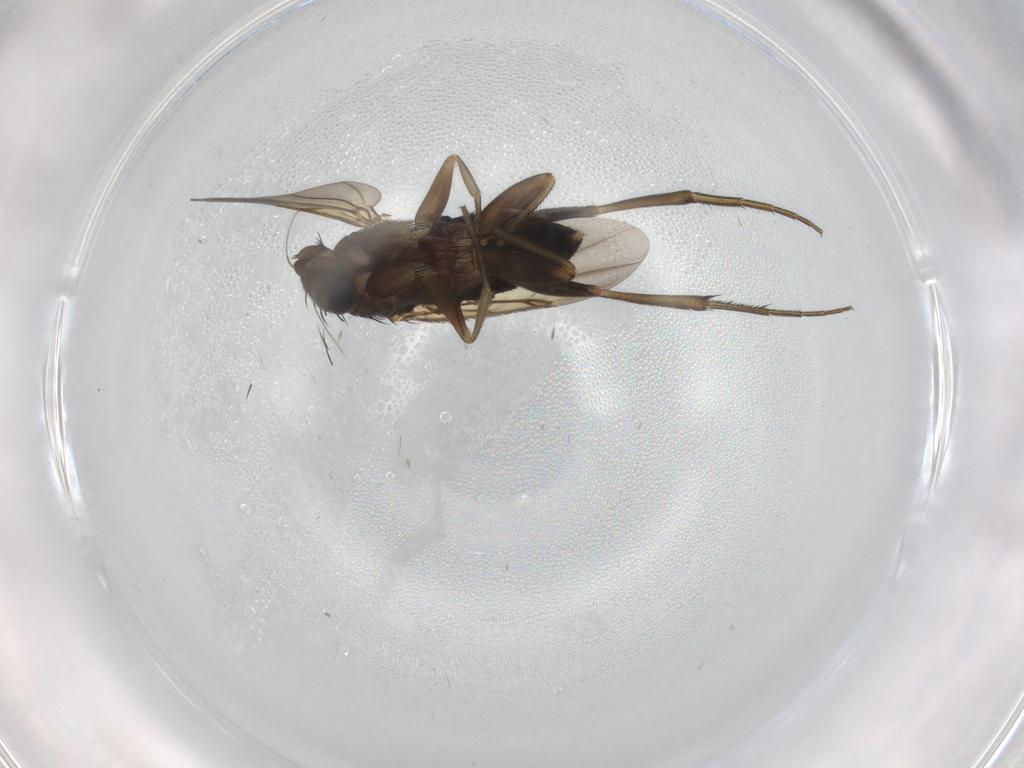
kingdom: Animalia
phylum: Arthropoda
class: Insecta
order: Diptera
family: Phoridae
